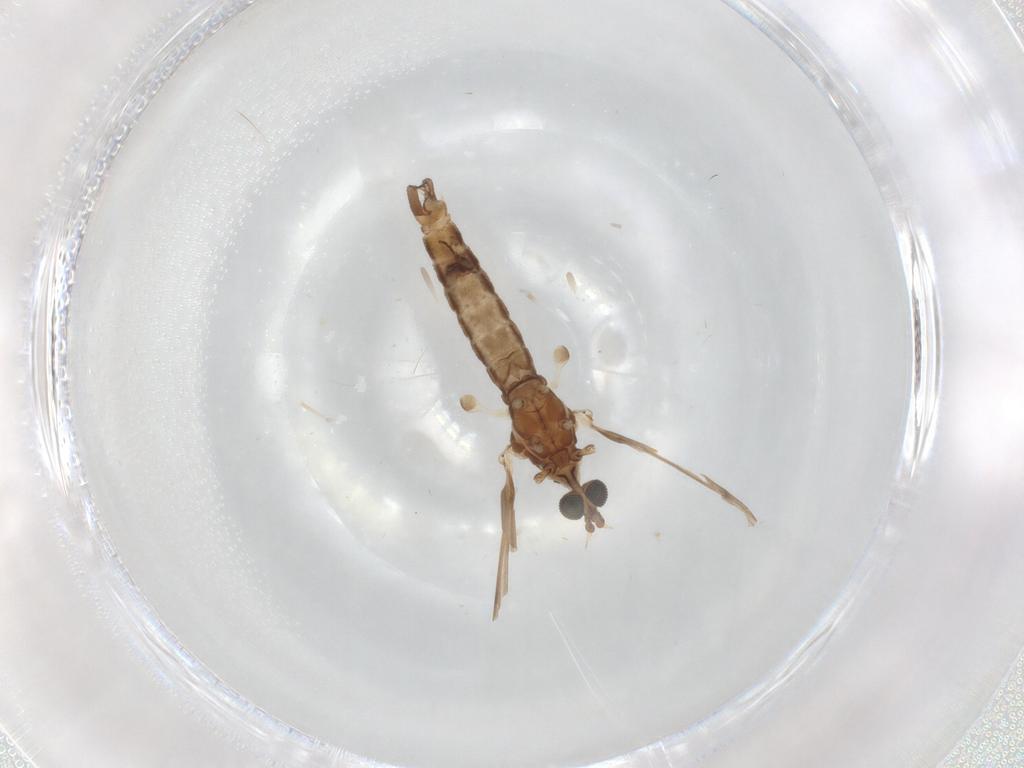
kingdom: Animalia
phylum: Arthropoda
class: Insecta
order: Diptera
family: Limoniidae
